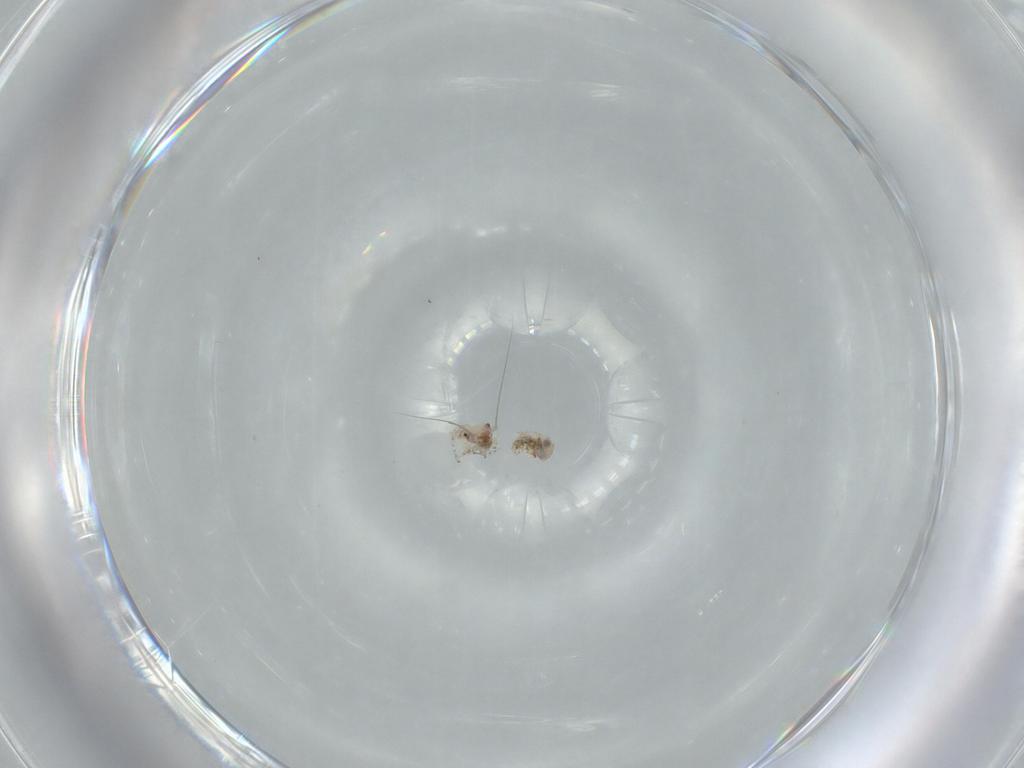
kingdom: Animalia
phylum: Arthropoda
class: Insecta
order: Psocodea
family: Psocidae
